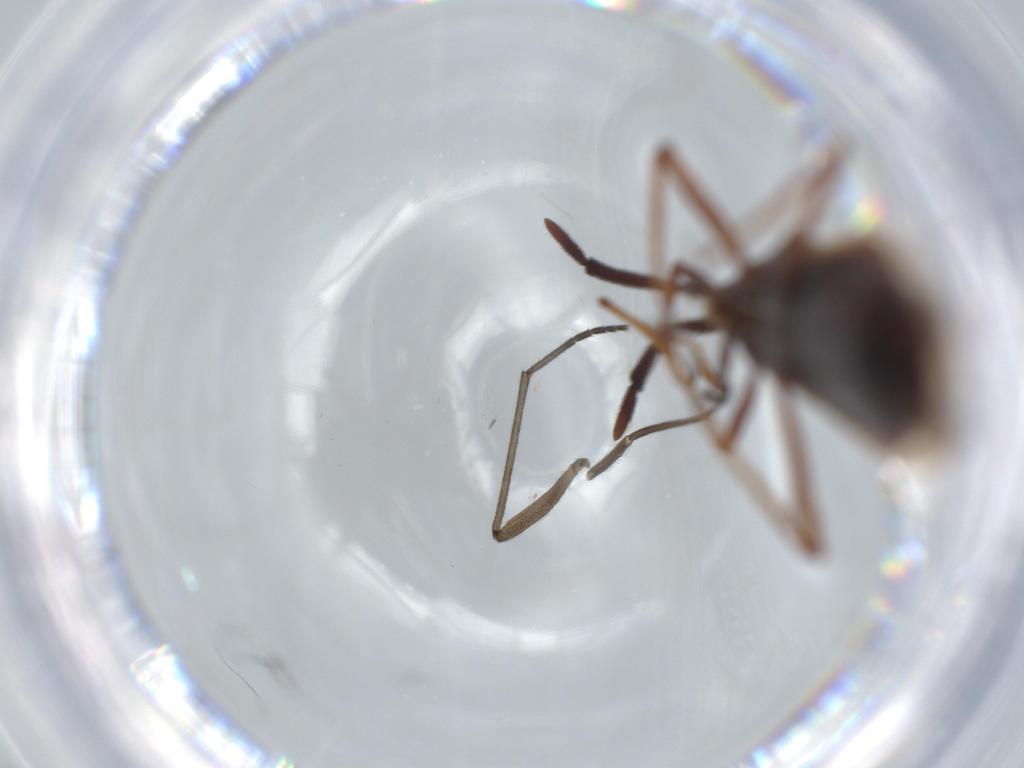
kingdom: Animalia
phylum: Arthropoda
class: Insecta
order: Hemiptera
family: Tingidae
